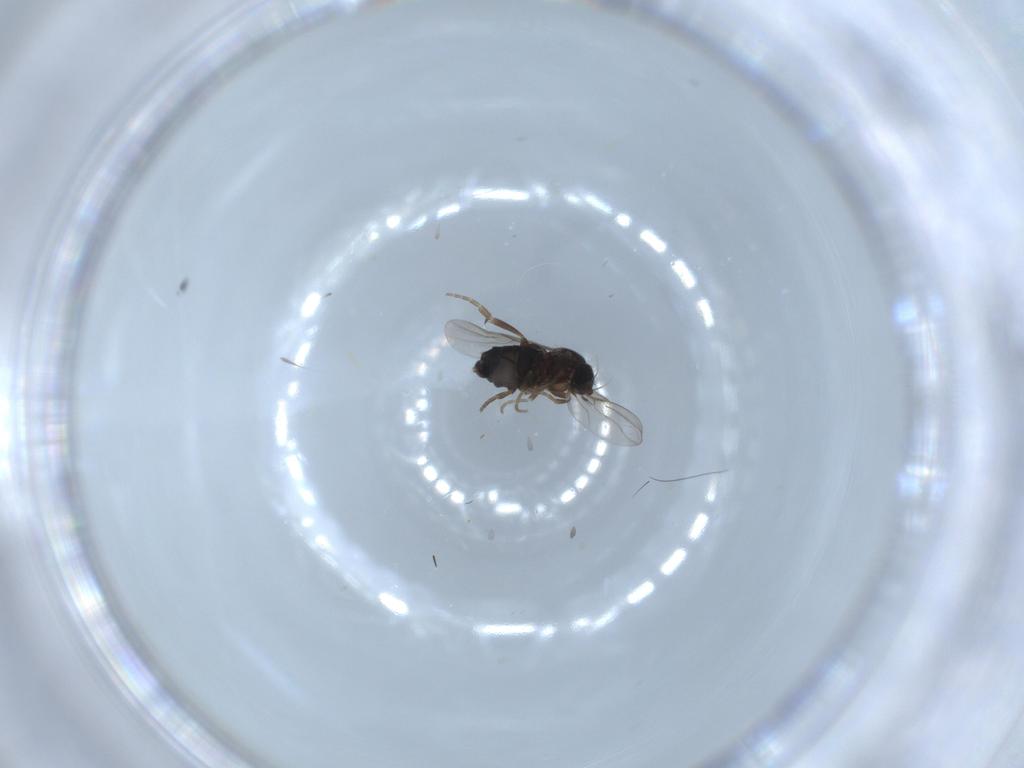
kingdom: Animalia
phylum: Arthropoda
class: Insecta
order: Diptera
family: Phoridae
